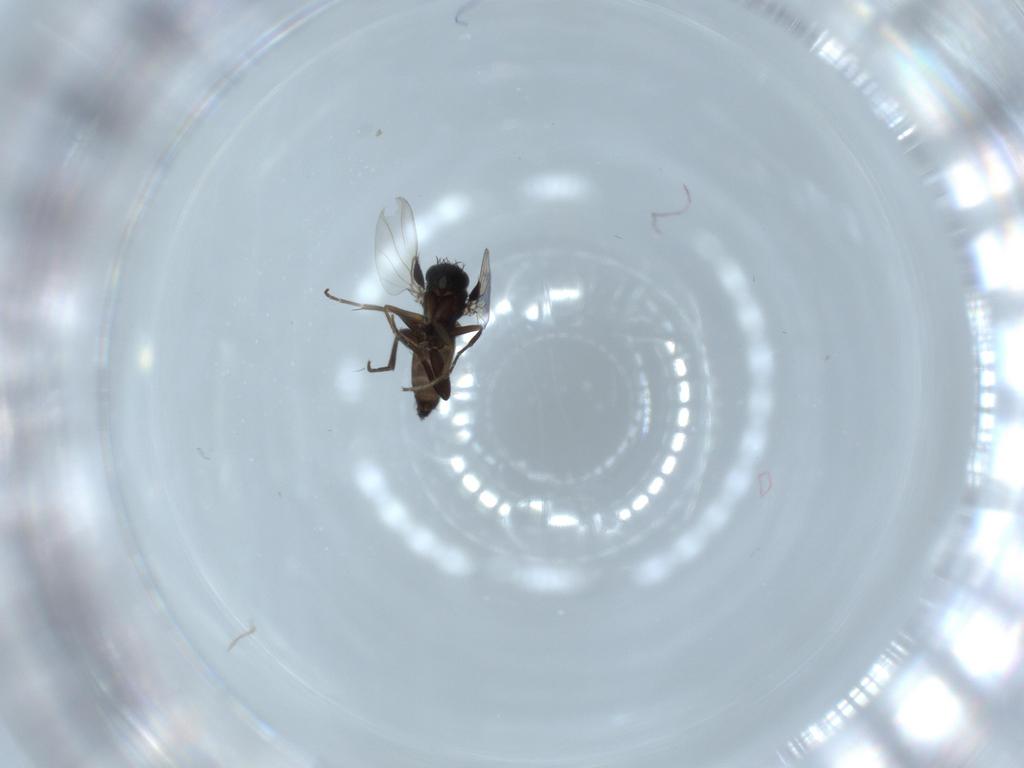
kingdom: Animalia
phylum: Arthropoda
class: Insecta
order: Diptera
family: Phoridae
